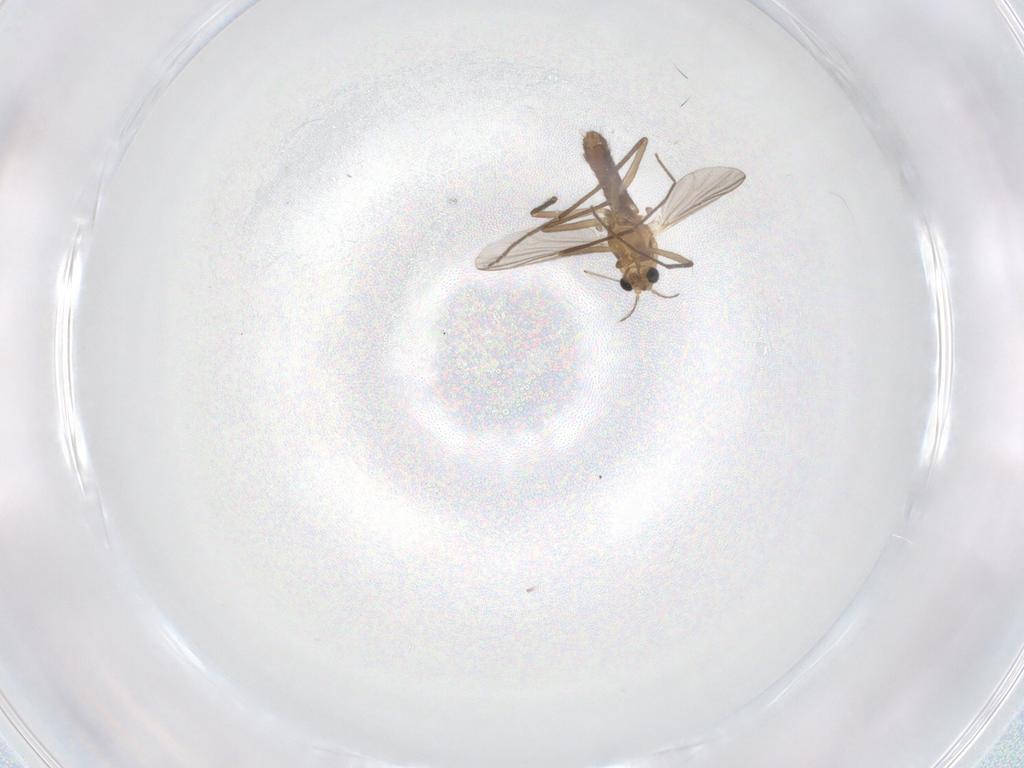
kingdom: Animalia
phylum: Arthropoda
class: Insecta
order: Diptera
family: Chironomidae
